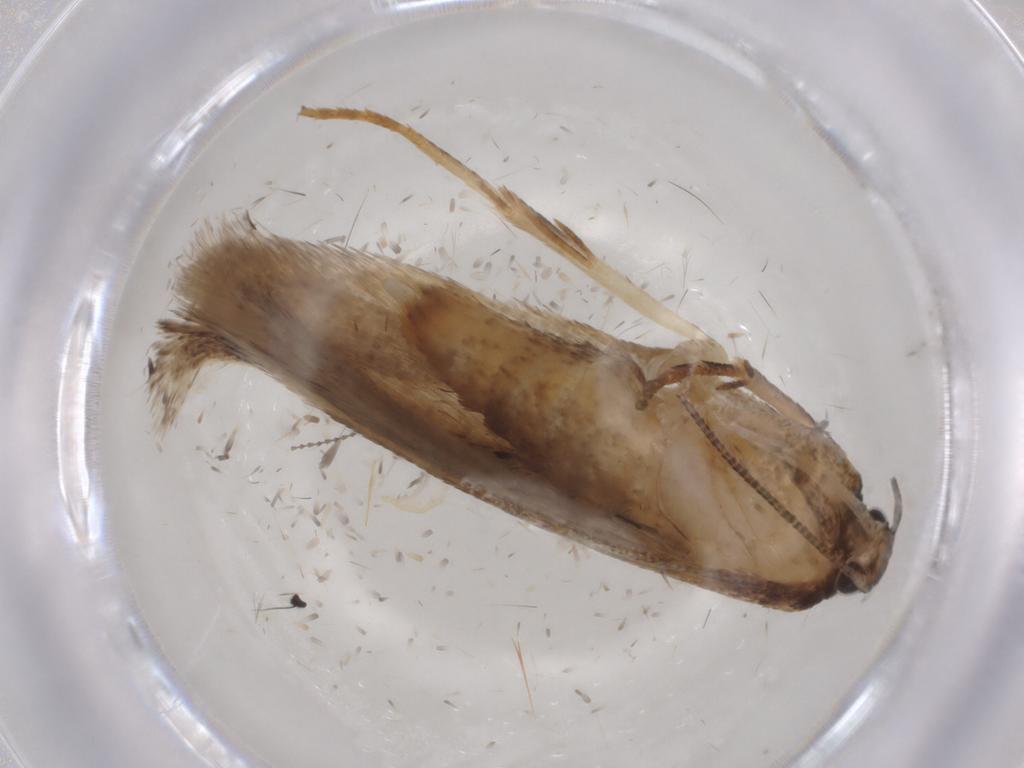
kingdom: Animalia
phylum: Arthropoda
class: Insecta
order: Lepidoptera
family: Gelechiidae
